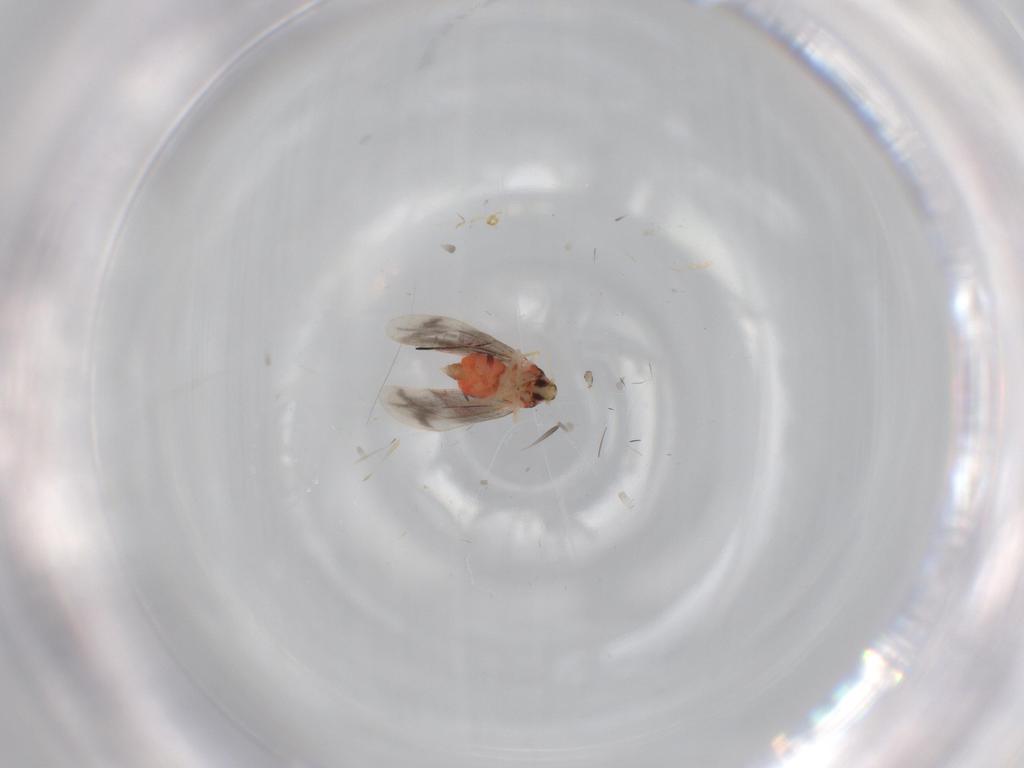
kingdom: Animalia
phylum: Arthropoda
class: Insecta
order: Hemiptera
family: Aleyrodidae
